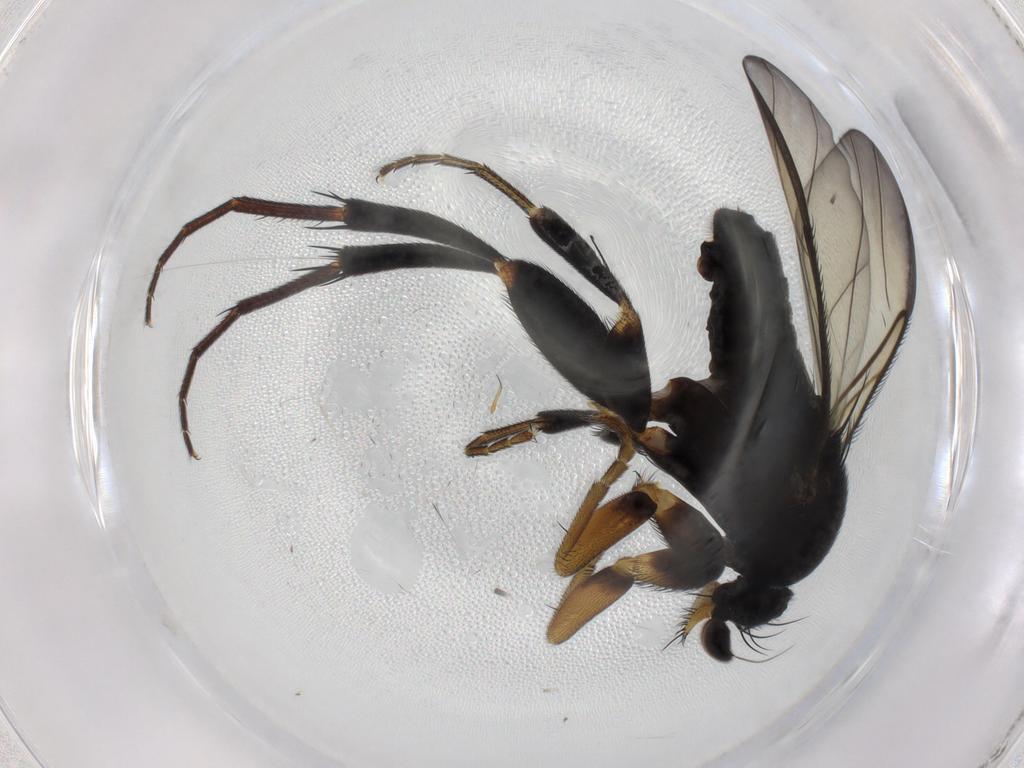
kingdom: Animalia
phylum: Arthropoda
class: Insecta
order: Diptera
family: Phoridae
